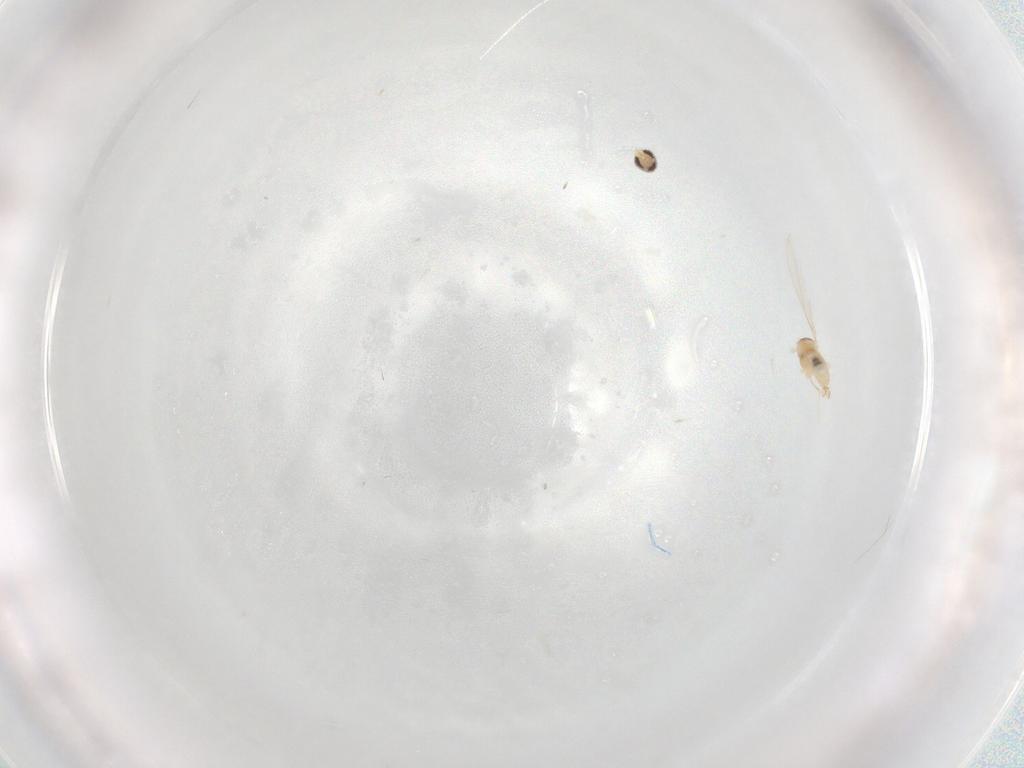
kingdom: Animalia
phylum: Arthropoda
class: Insecta
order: Diptera
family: Cecidomyiidae
